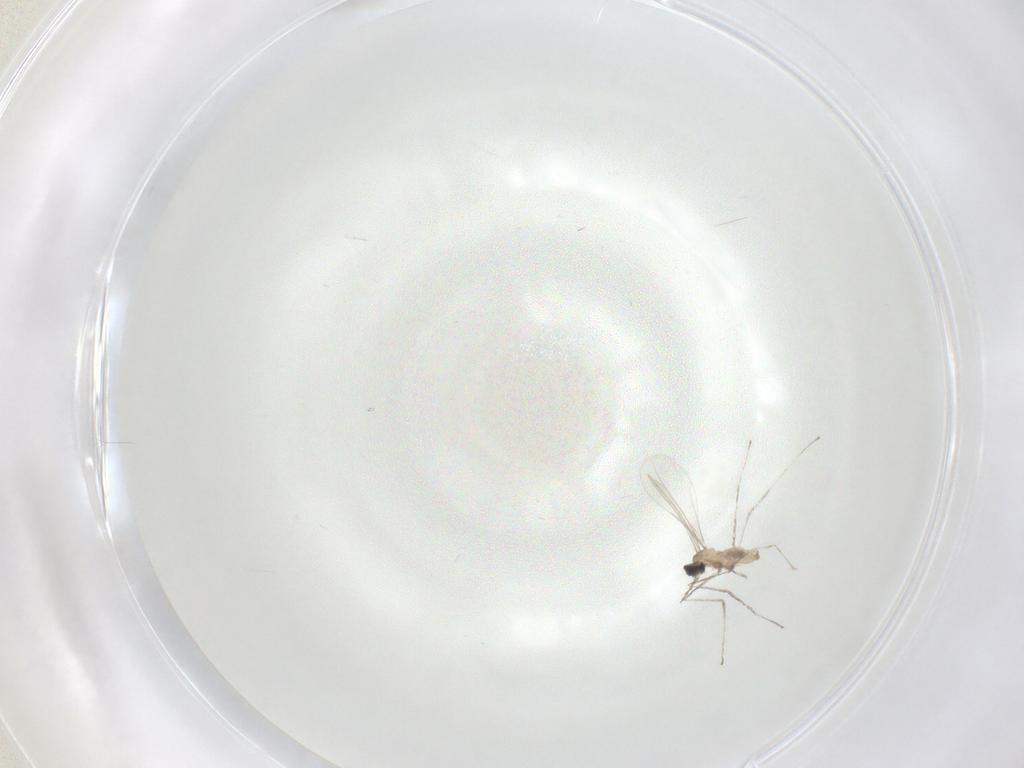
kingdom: Animalia
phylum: Arthropoda
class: Insecta
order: Diptera
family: Cecidomyiidae
